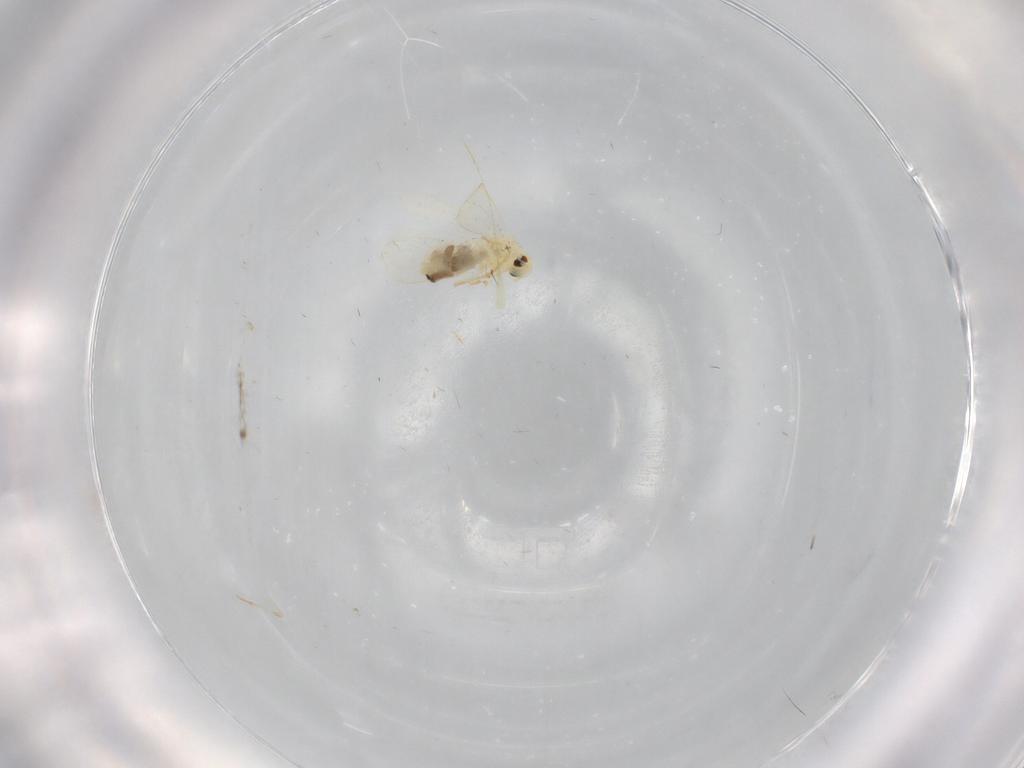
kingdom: Animalia
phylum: Arthropoda
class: Insecta
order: Hemiptera
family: Aleyrodidae
